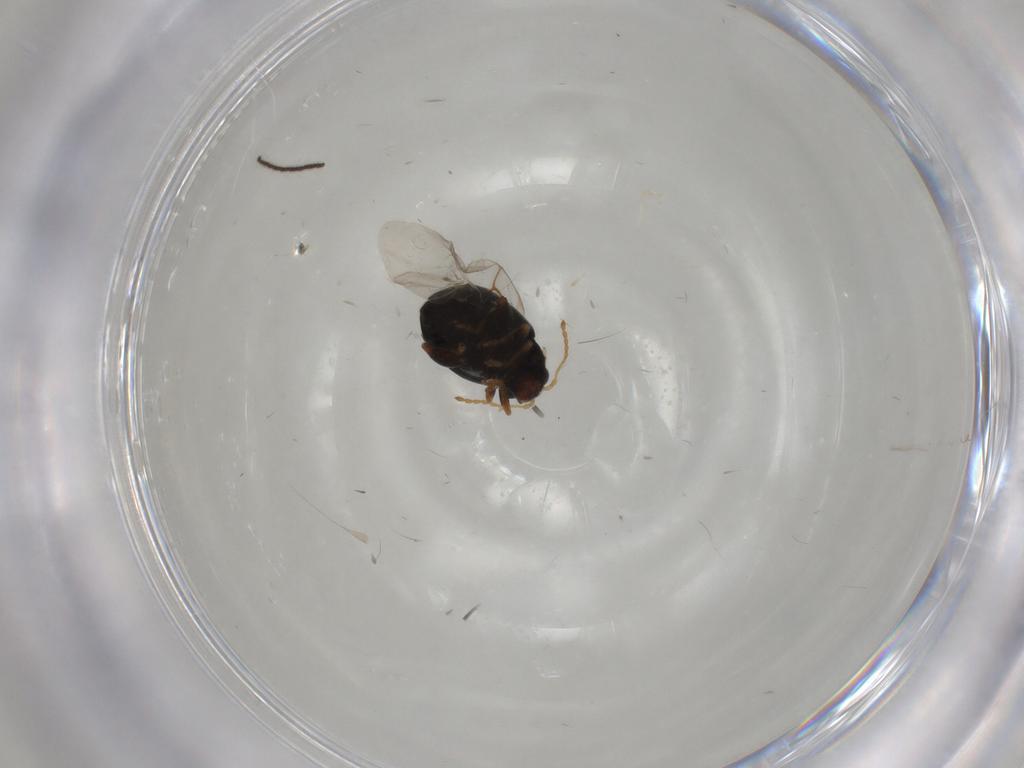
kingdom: Animalia
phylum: Arthropoda
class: Insecta
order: Coleoptera
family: Chrysomelidae
